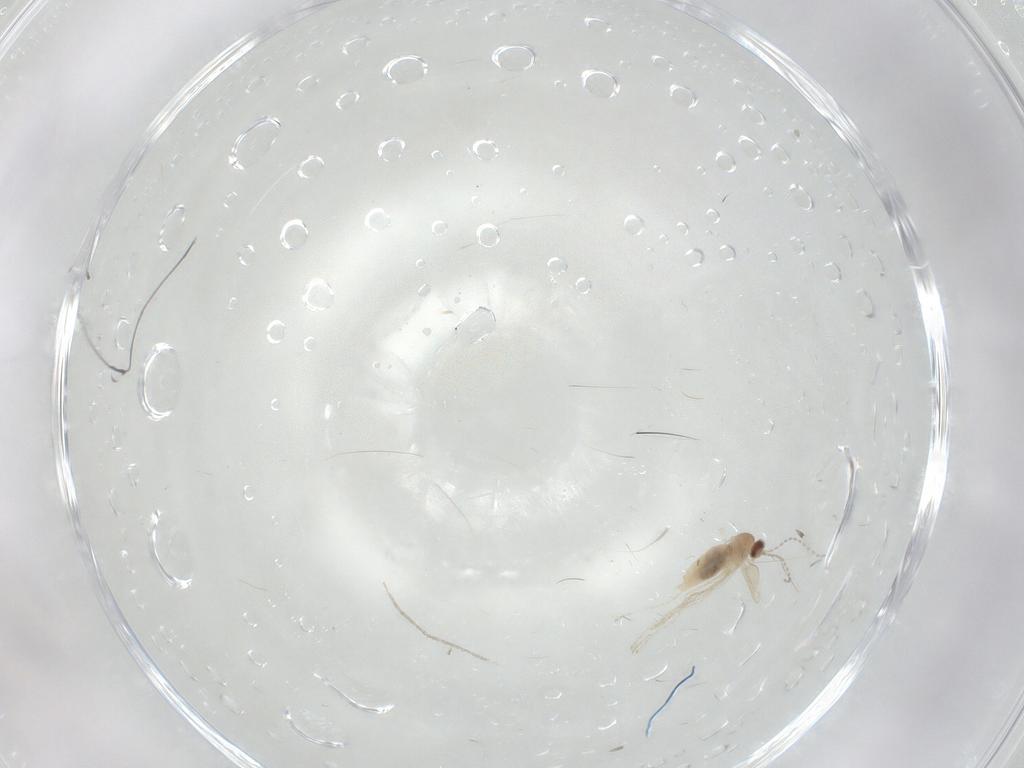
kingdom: Animalia
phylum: Arthropoda
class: Insecta
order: Diptera
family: Cecidomyiidae
